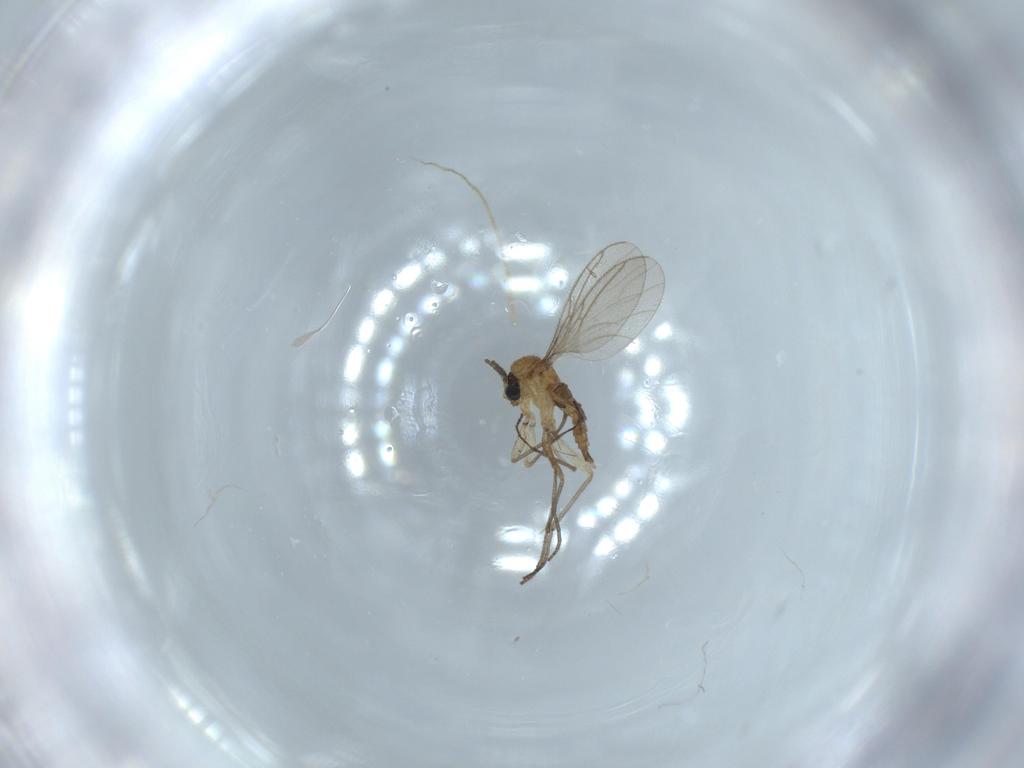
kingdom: Animalia
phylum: Arthropoda
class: Insecta
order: Diptera
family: Sciaridae
